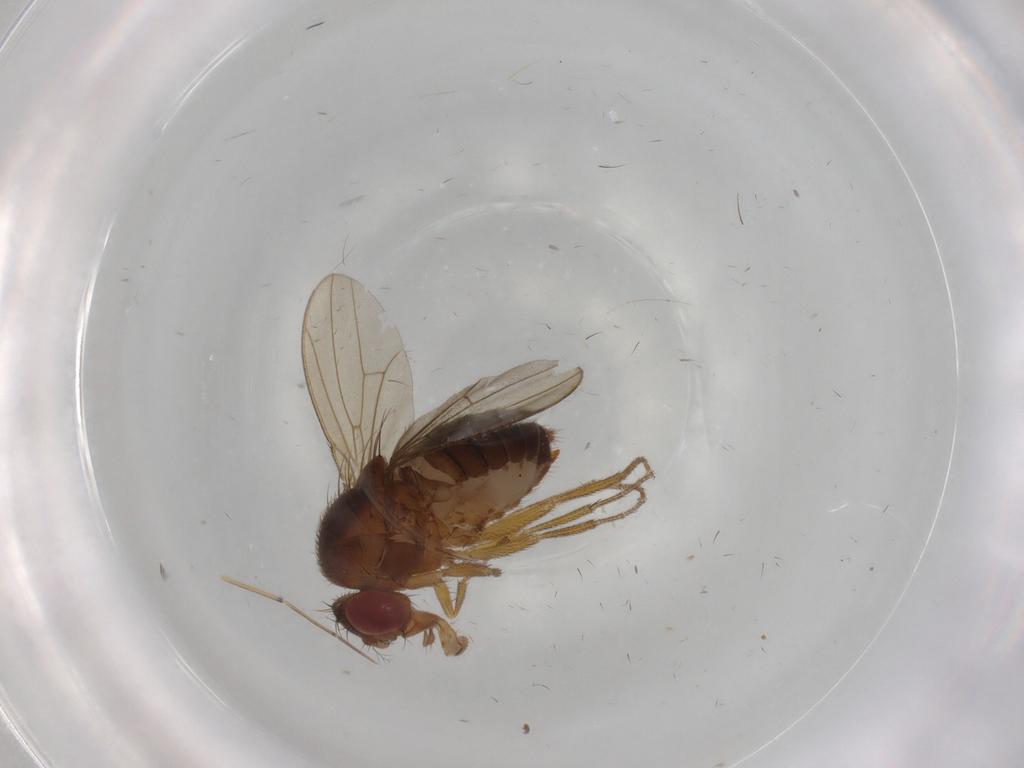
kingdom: Animalia
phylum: Arthropoda
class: Insecta
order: Diptera
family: Drosophilidae
